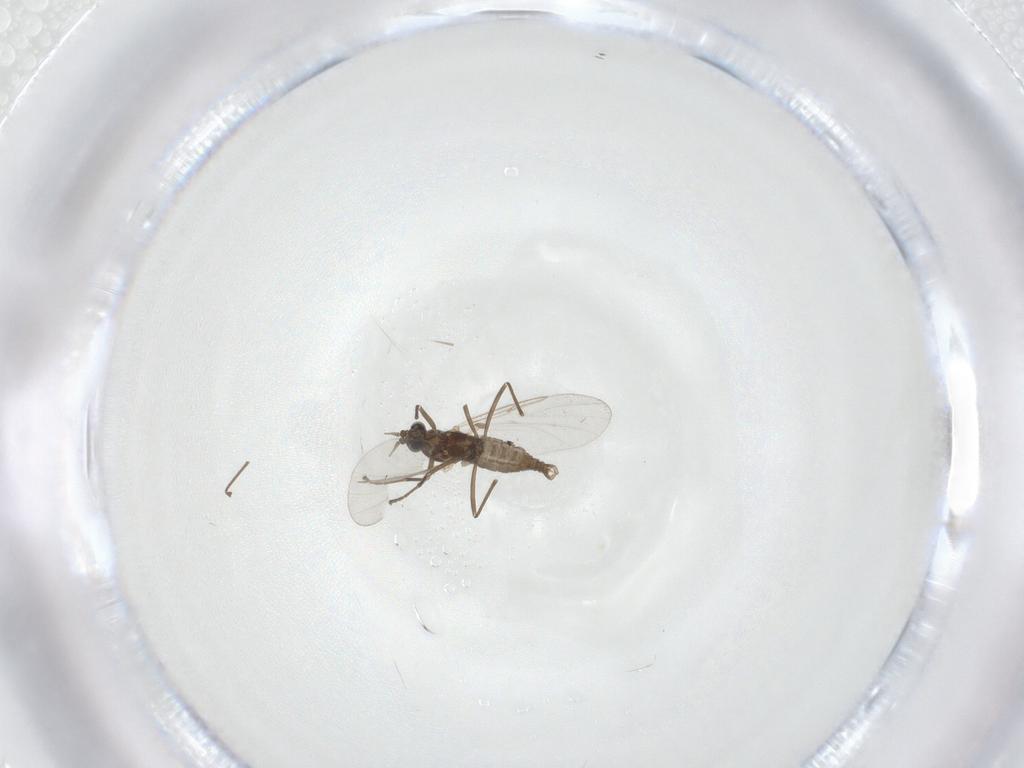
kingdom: Animalia
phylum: Arthropoda
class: Insecta
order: Diptera
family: Cecidomyiidae
